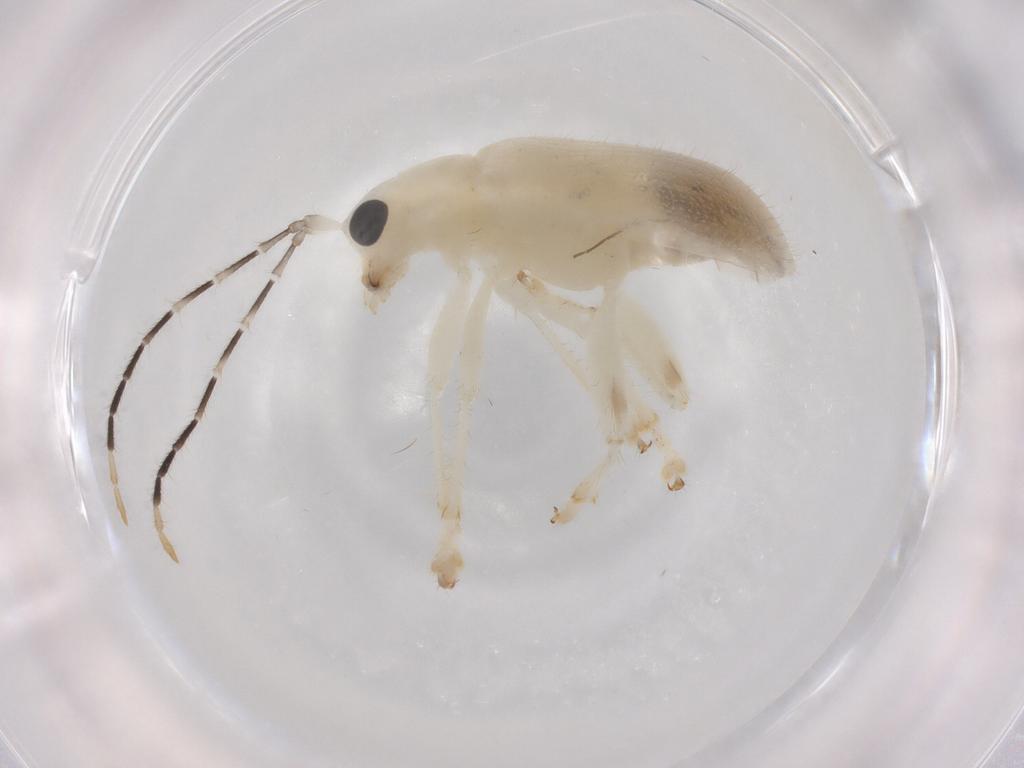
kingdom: Animalia
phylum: Arthropoda
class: Insecta
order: Coleoptera
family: Chrysomelidae
